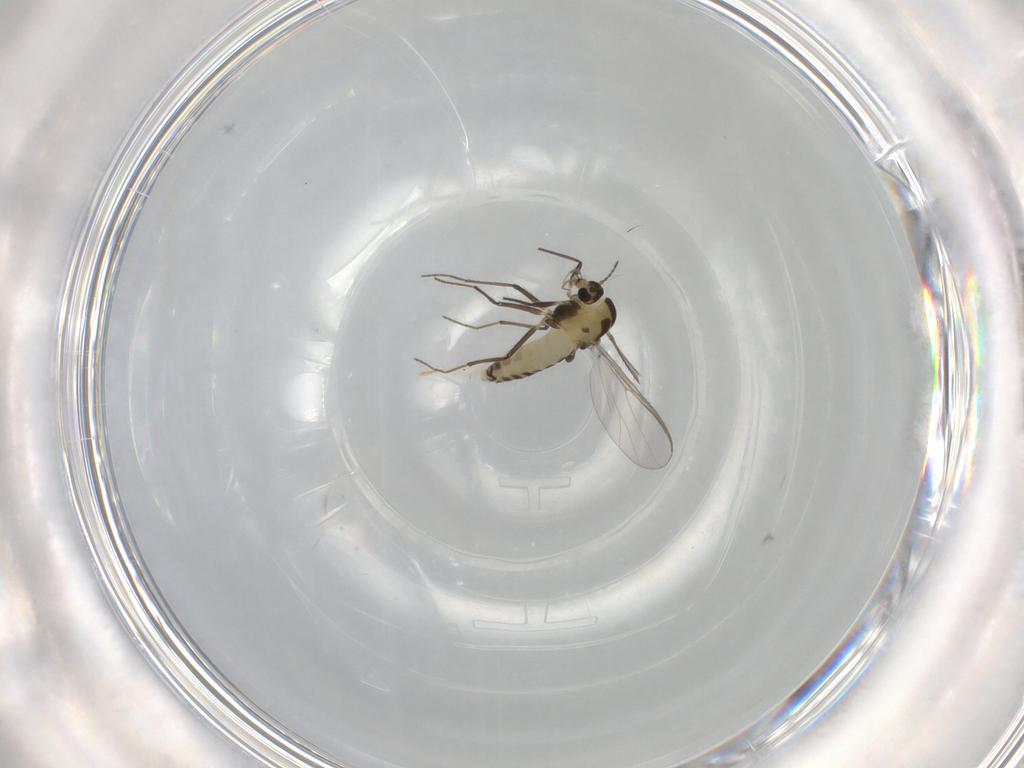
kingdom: Animalia
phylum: Arthropoda
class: Insecta
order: Diptera
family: Chironomidae
